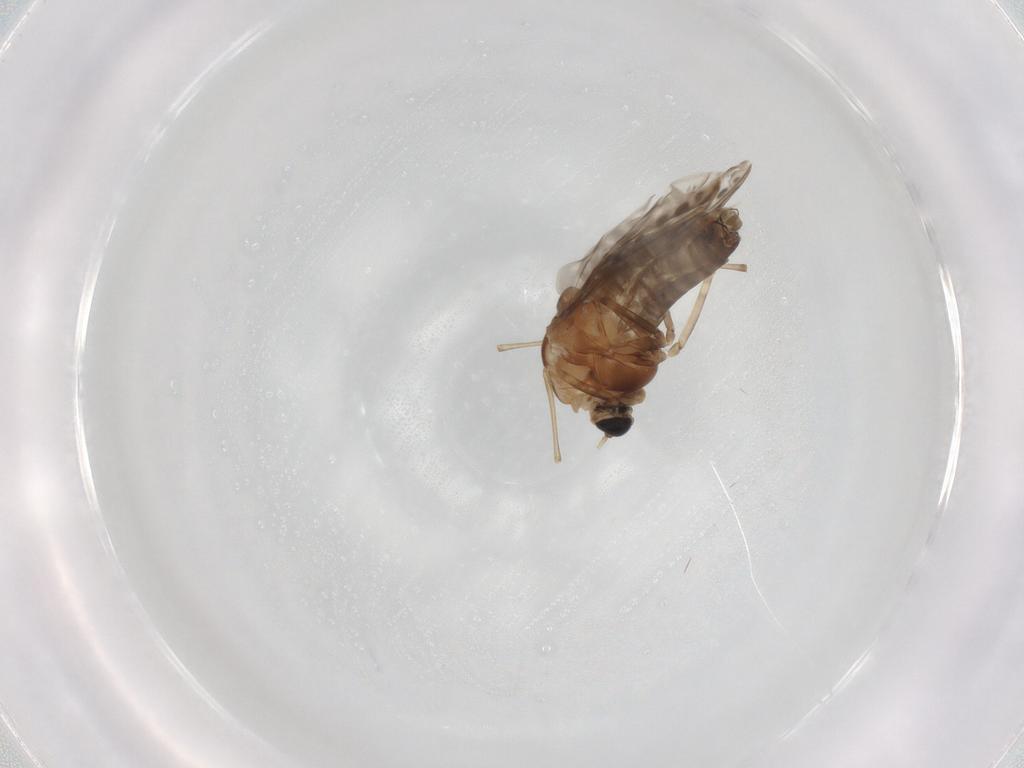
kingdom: Animalia
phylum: Arthropoda
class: Insecta
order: Diptera
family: Chironomidae
